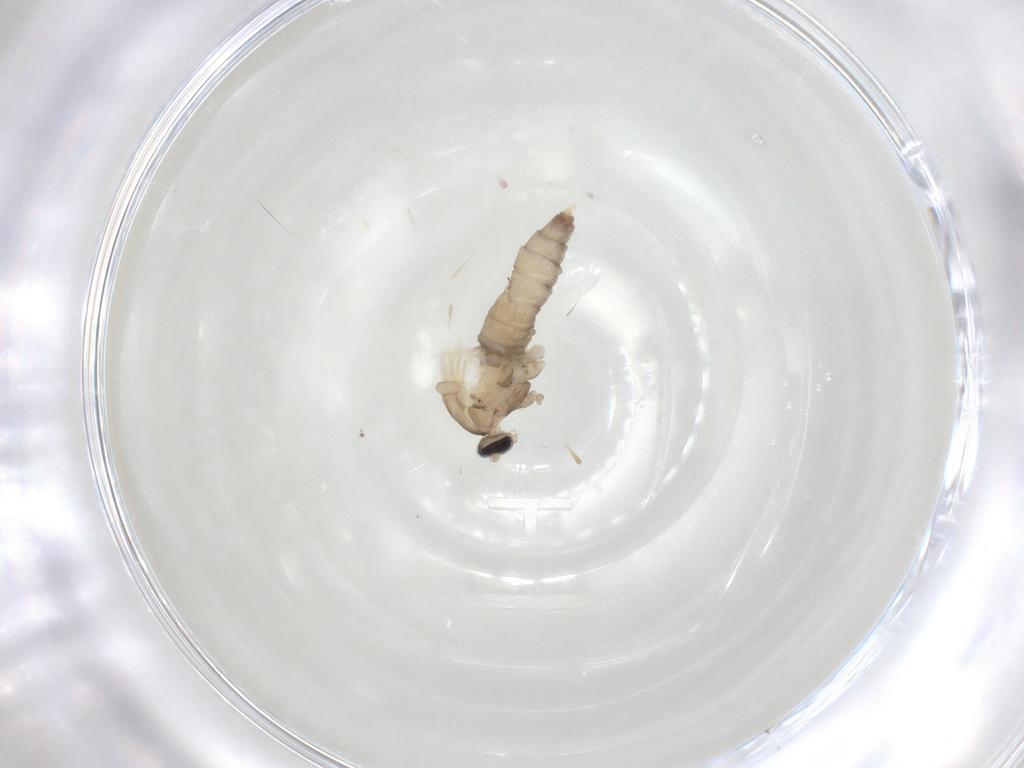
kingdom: Animalia
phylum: Arthropoda
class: Insecta
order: Diptera
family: Cecidomyiidae
